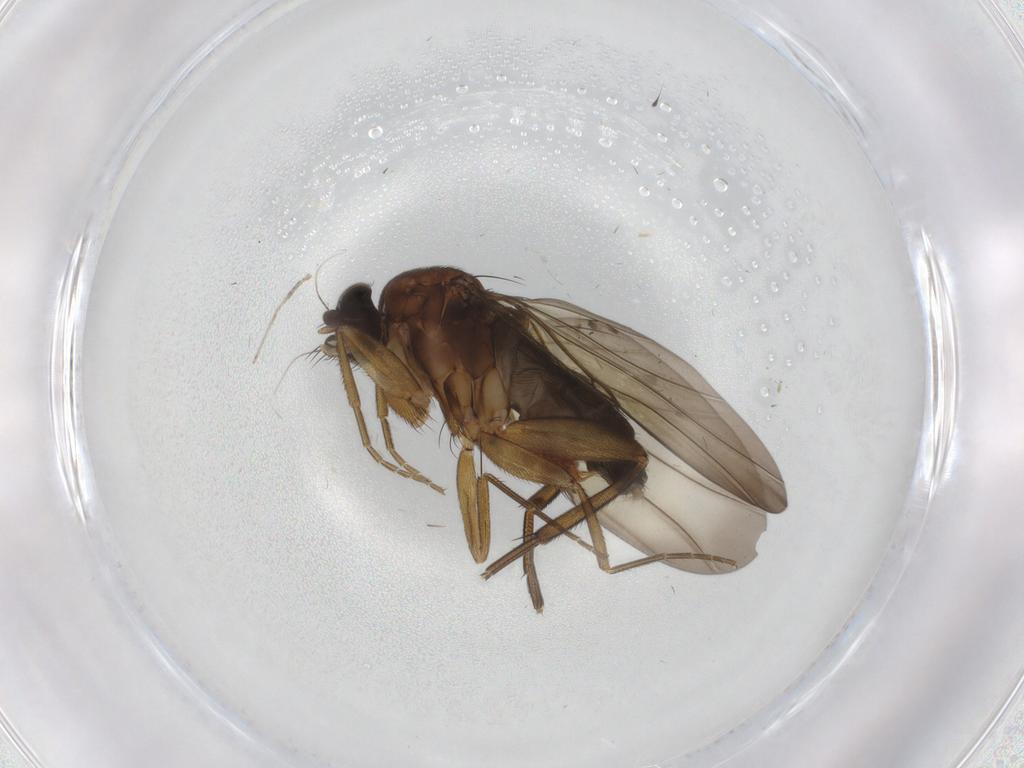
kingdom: Animalia
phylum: Arthropoda
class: Insecta
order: Diptera
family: Phoridae
